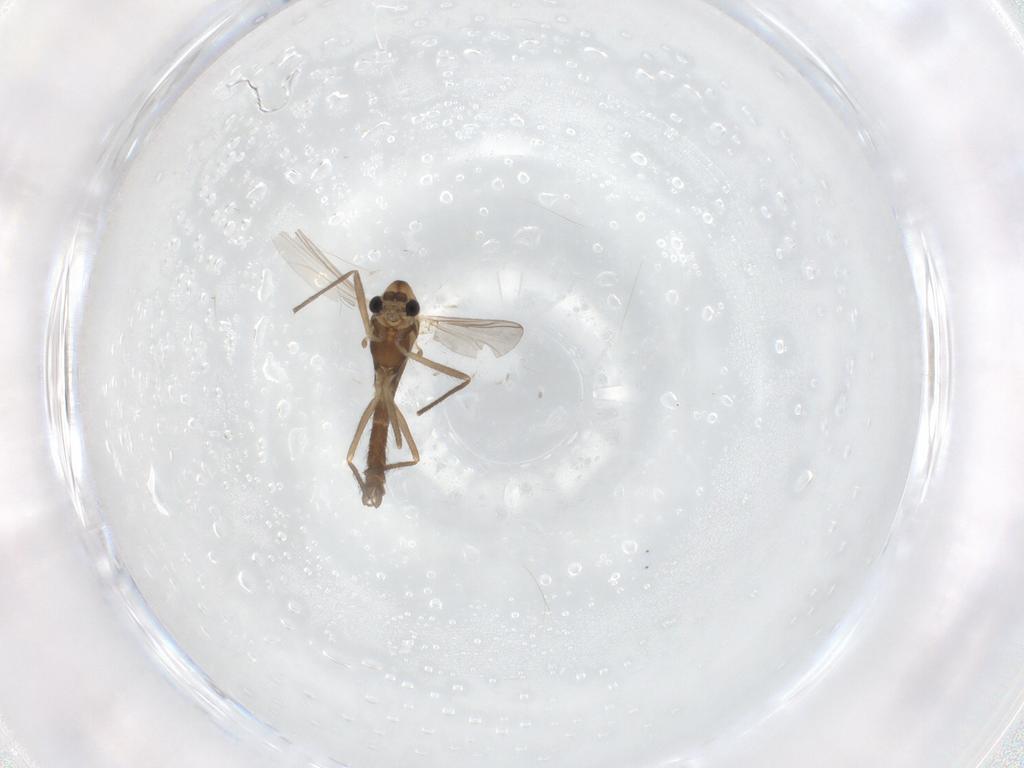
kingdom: Animalia
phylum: Arthropoda
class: Insecta
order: Diptera
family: Chironomidae
